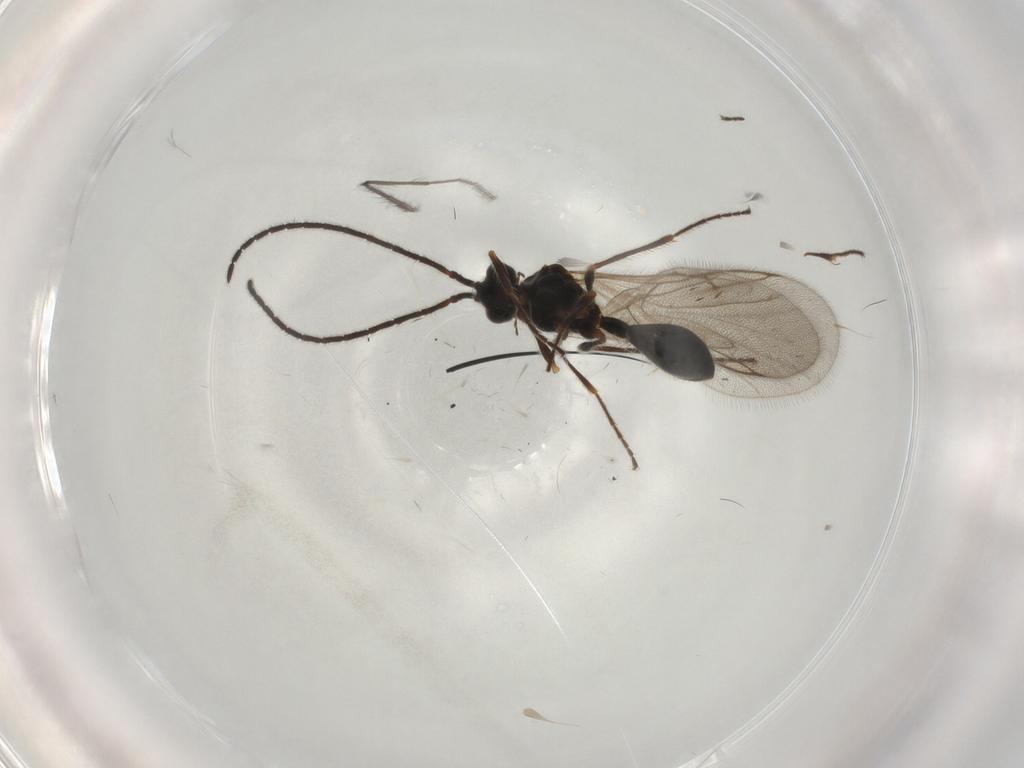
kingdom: Animalia
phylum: Arthropoda
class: Insecta
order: Hymenoptera
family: Diapriidae
